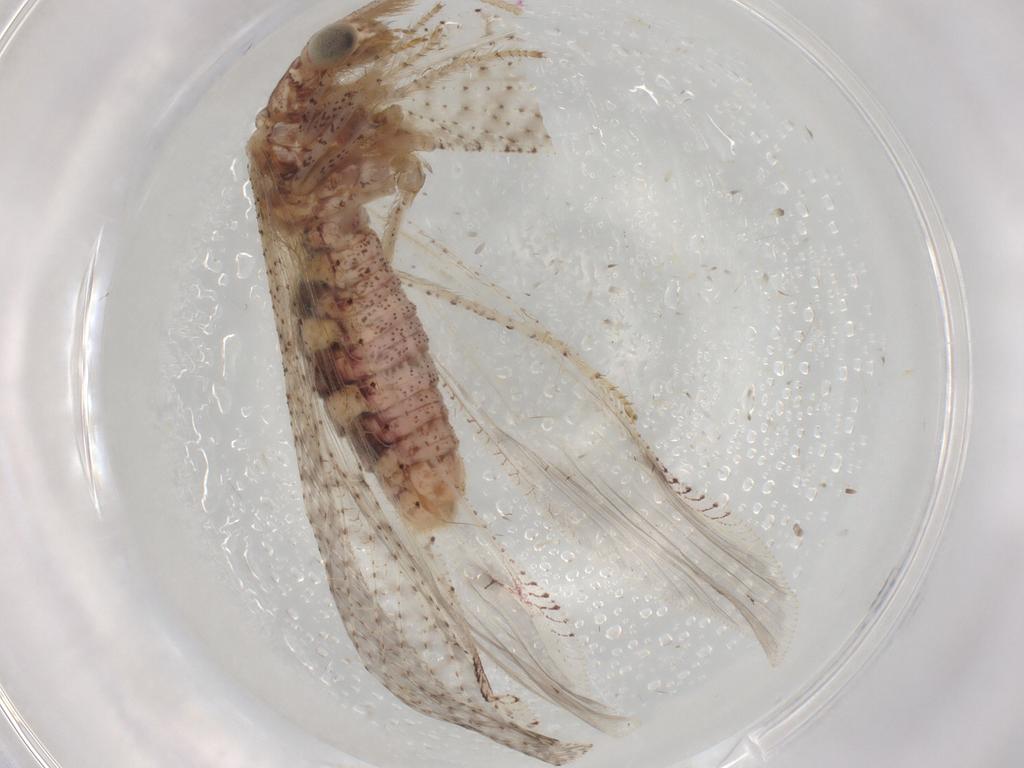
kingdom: Animalia
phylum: Arthropoda
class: Insecta
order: Neuroptera
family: Berothidae
